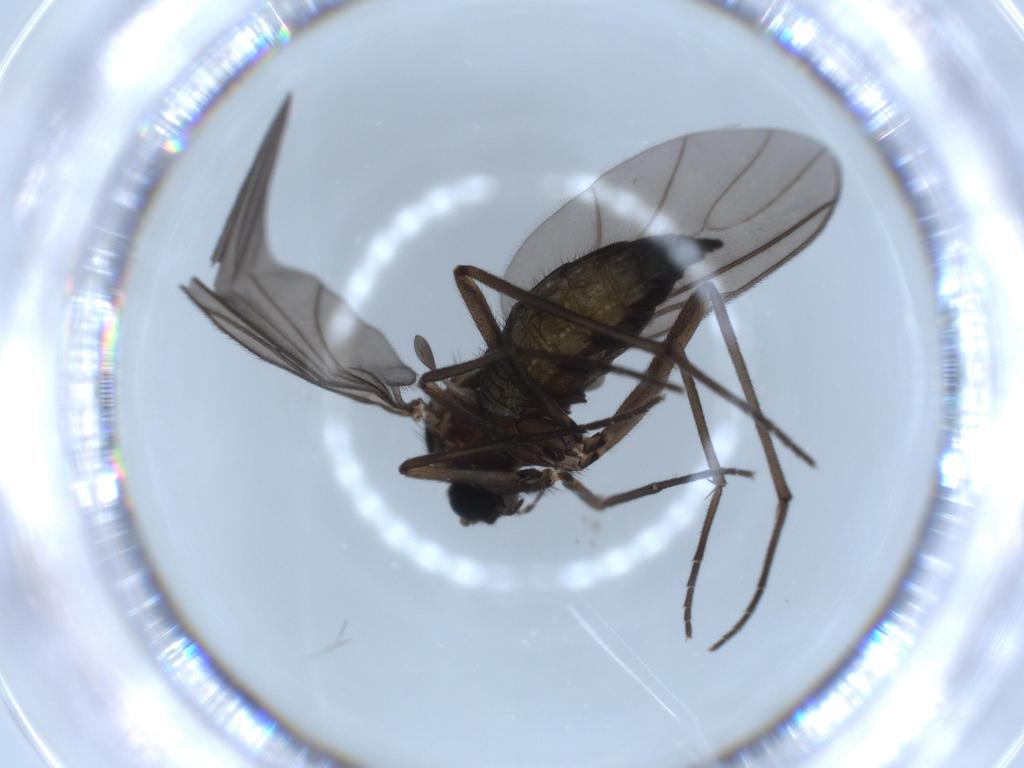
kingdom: Animalia
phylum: Arthropoda
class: Insecta
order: Diptera
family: Sciaridae
